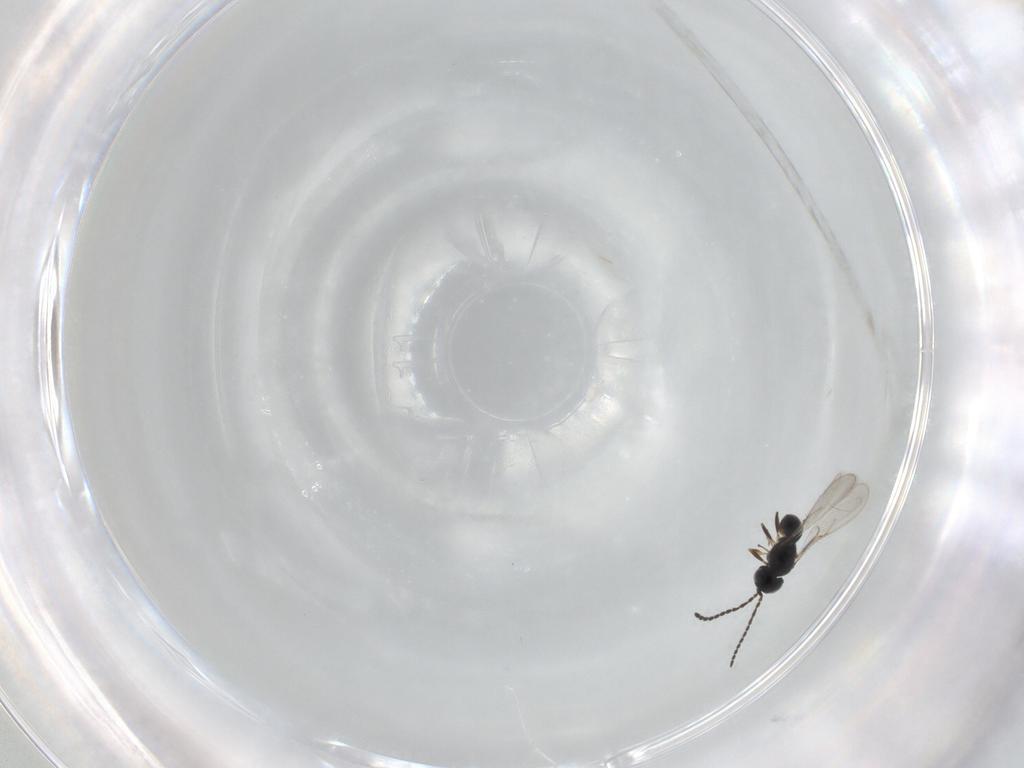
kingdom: Animalia
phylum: Arthropoda
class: Insecta
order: Hymenoptera
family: Scelionidae
